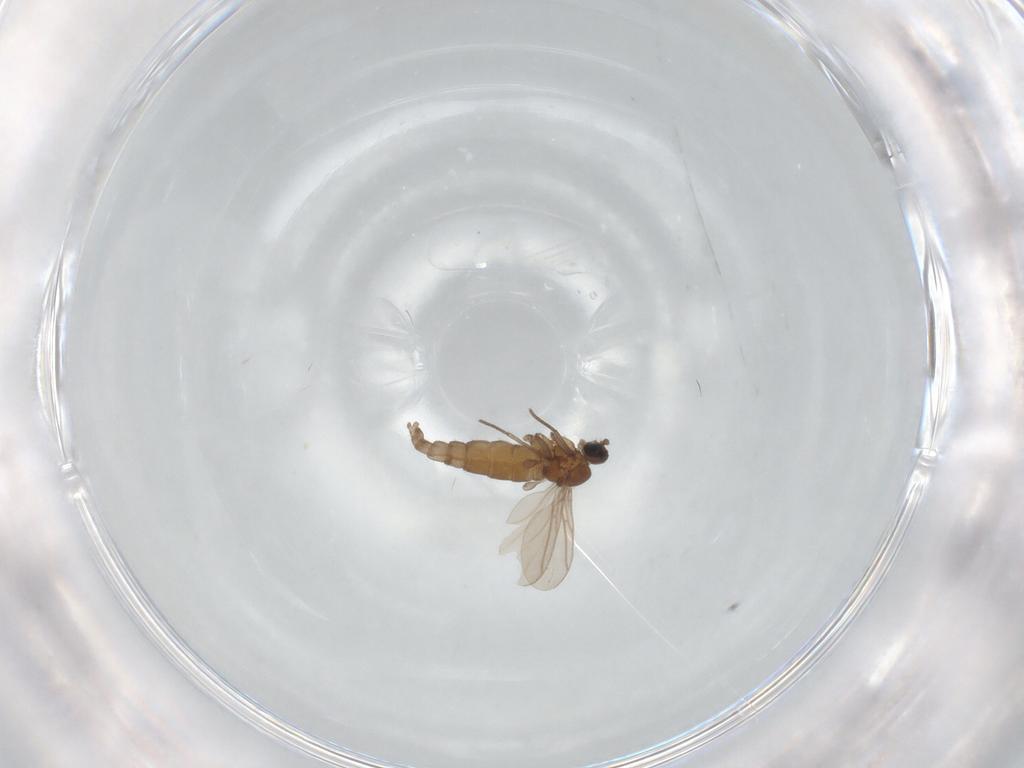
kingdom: Animalia
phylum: Arthropoda
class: Insecta
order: Diptera
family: Sciaridae
